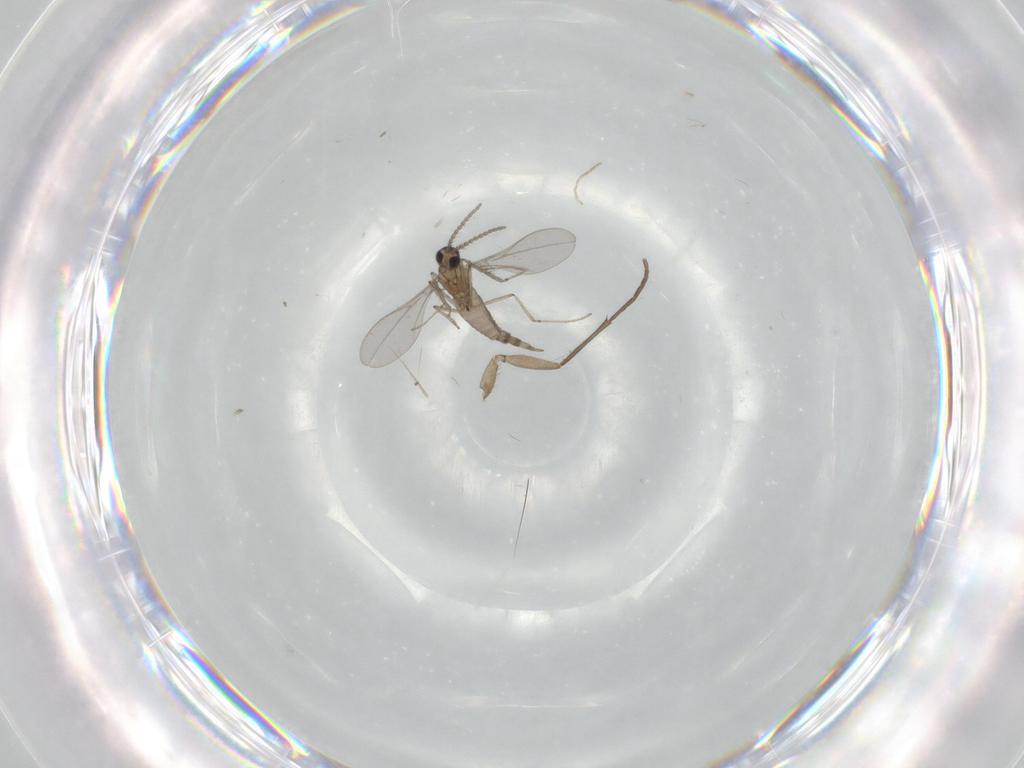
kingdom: Animalia
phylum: Arthropoda
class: Insecta
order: Diptera
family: Cecidomyiidae
